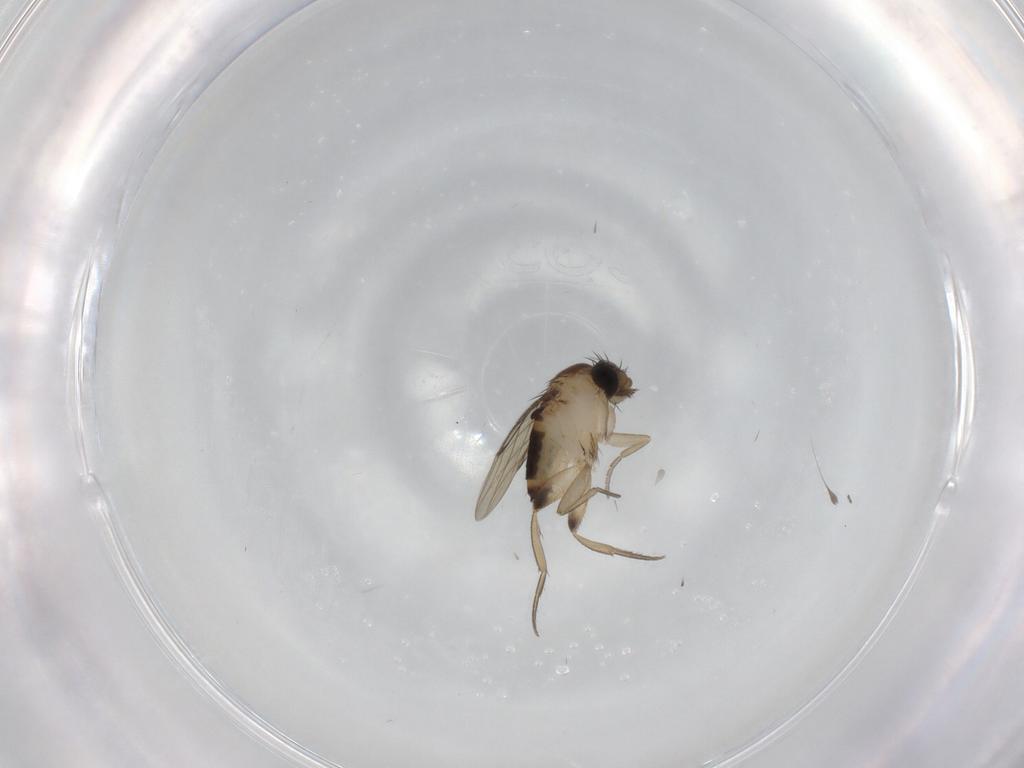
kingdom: Animalia
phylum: Arthropoda
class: Insecta
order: Diptera
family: Phoridae
